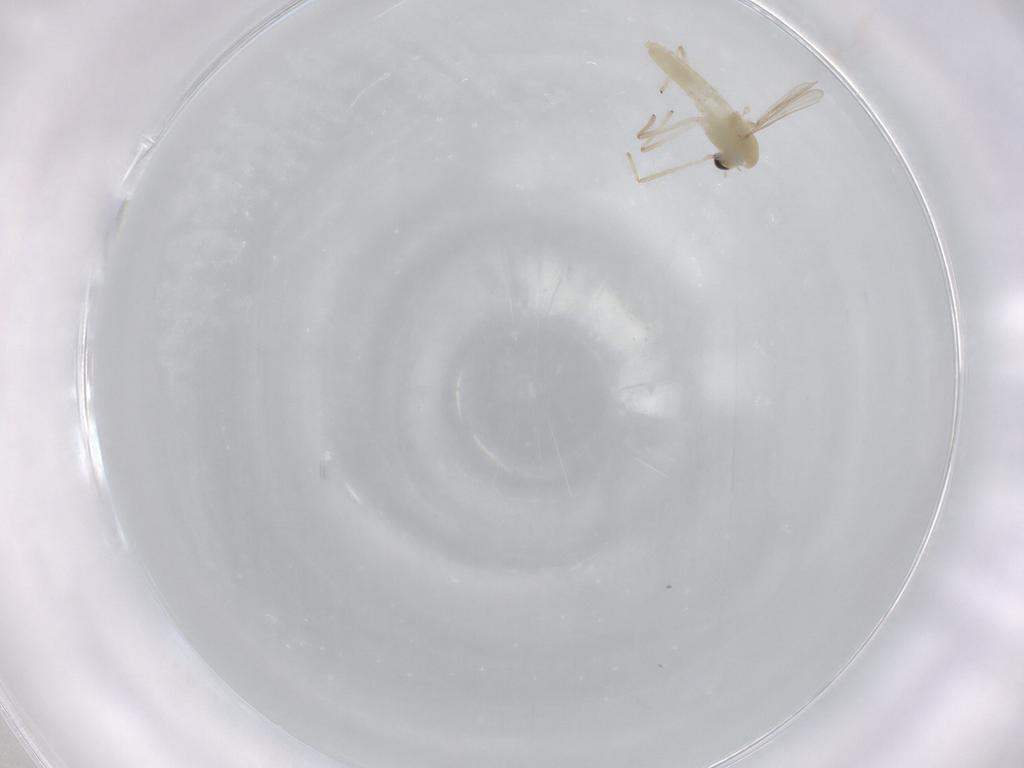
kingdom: Animalia
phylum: Arthropoda
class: Insecta
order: Diptera
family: Chironomidae
